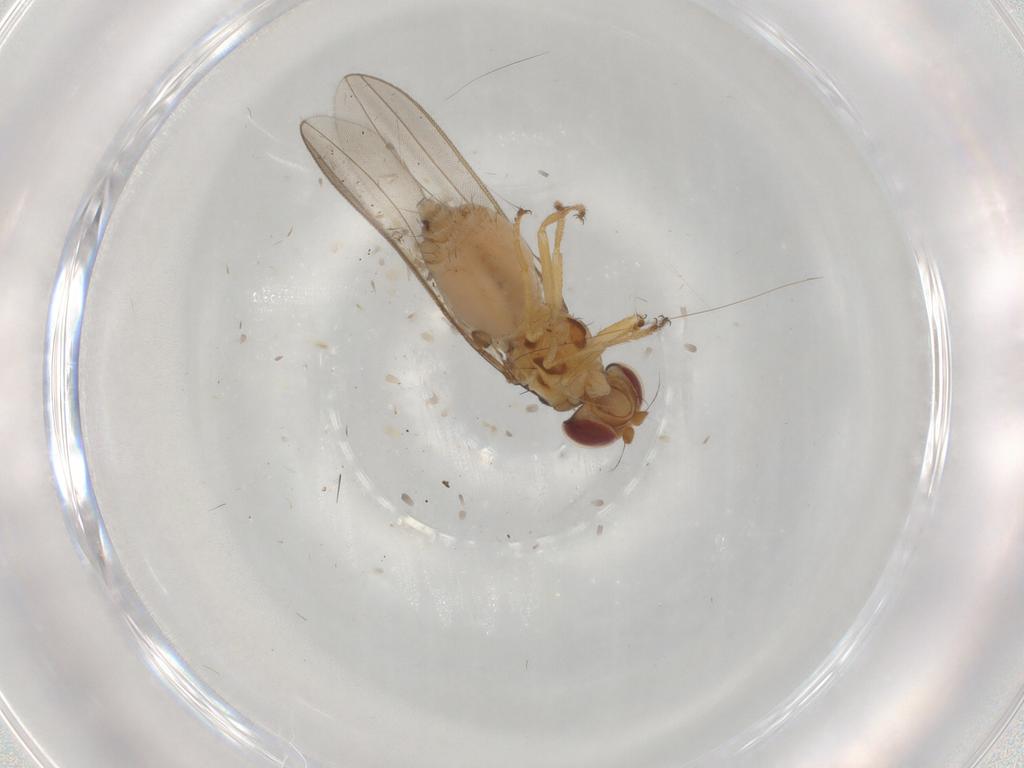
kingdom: Animalia
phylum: Arthropoda
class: Insecta
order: Diptera
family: Asteiidae
